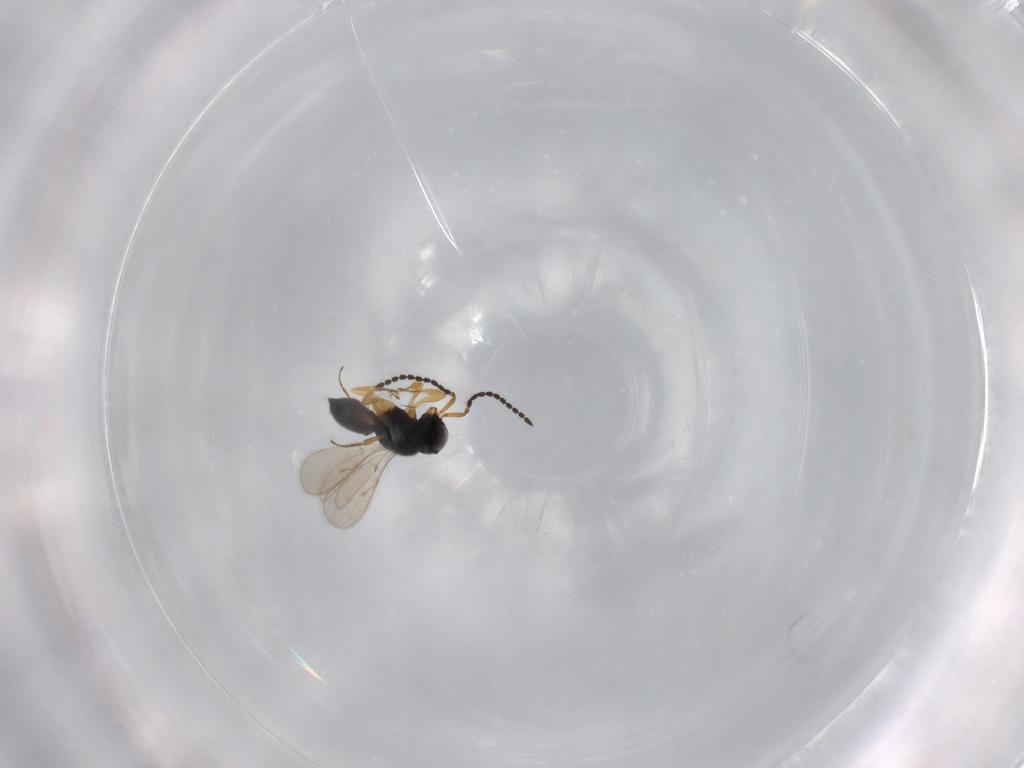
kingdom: Animalia
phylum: Arthropoda
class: Insecta
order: Hymenoptera
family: Scelionidae
